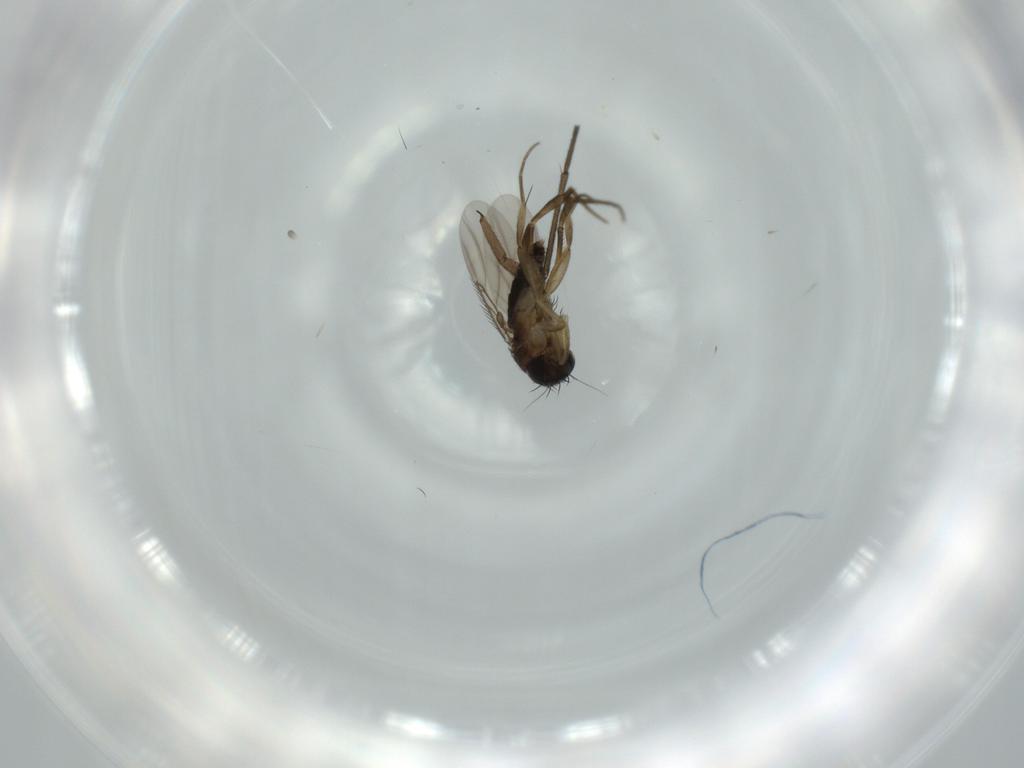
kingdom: Animalia
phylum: Arthropoda
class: Insecta
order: Diptera
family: Phoridae
